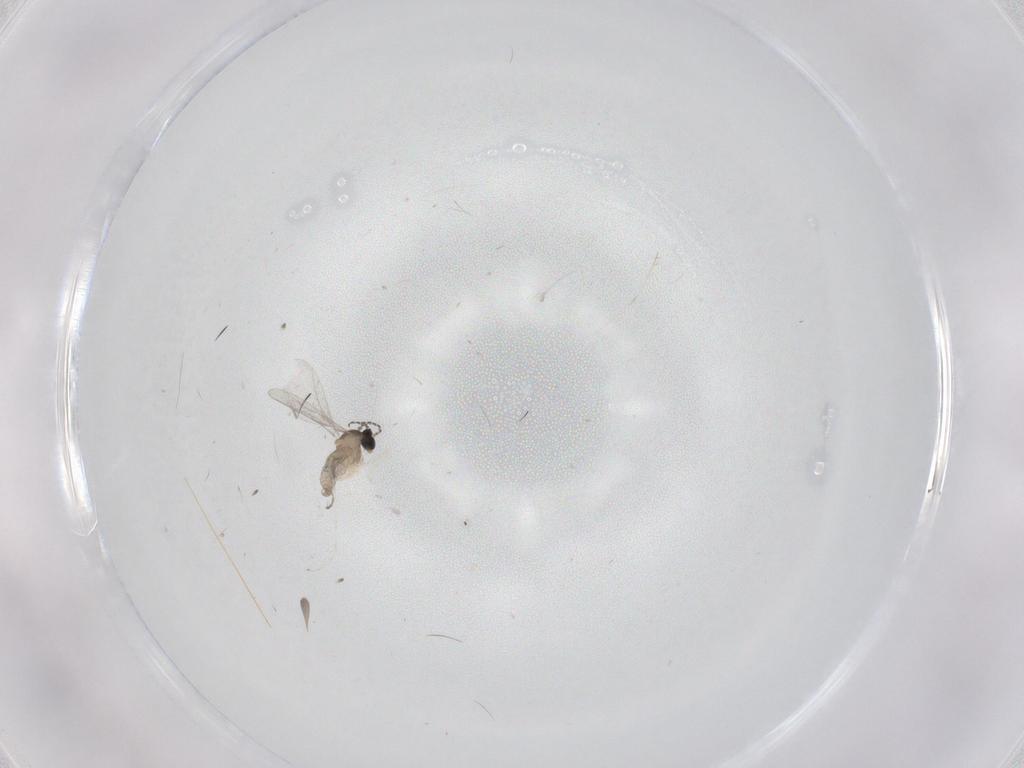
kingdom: Animalia
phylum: Arthropoda
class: Insecta
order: Diptera
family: Cecidomyiidae
